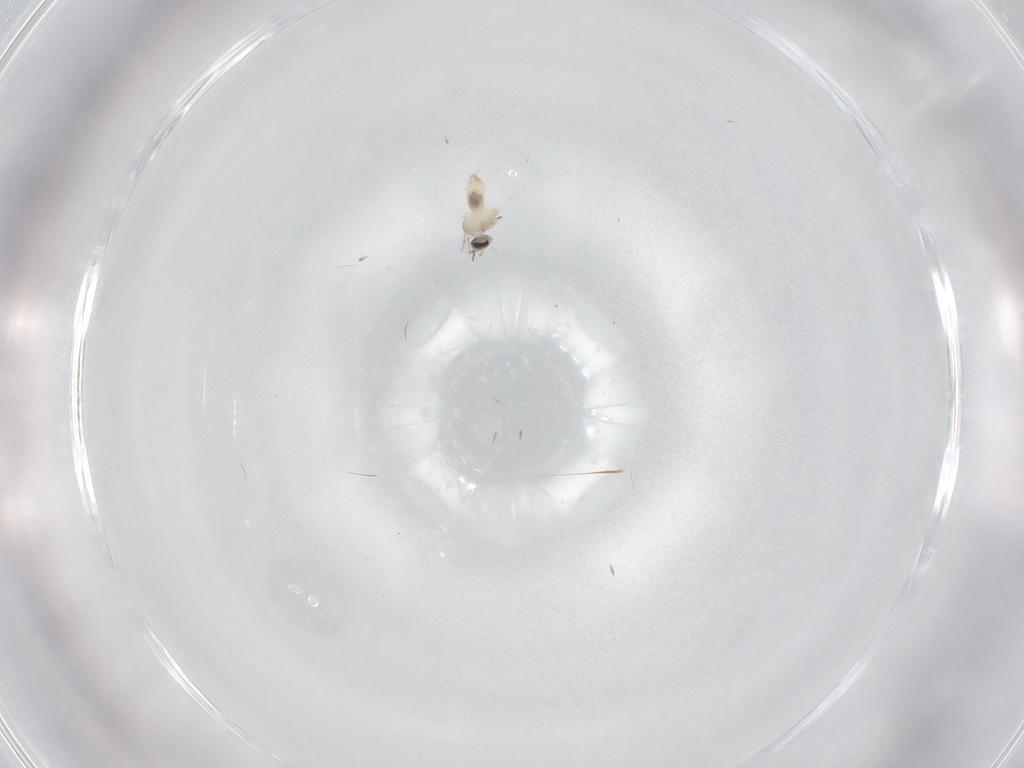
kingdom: Animalia
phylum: Arthropoda
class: Insecta
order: Diptera
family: Cecidomyiidae
